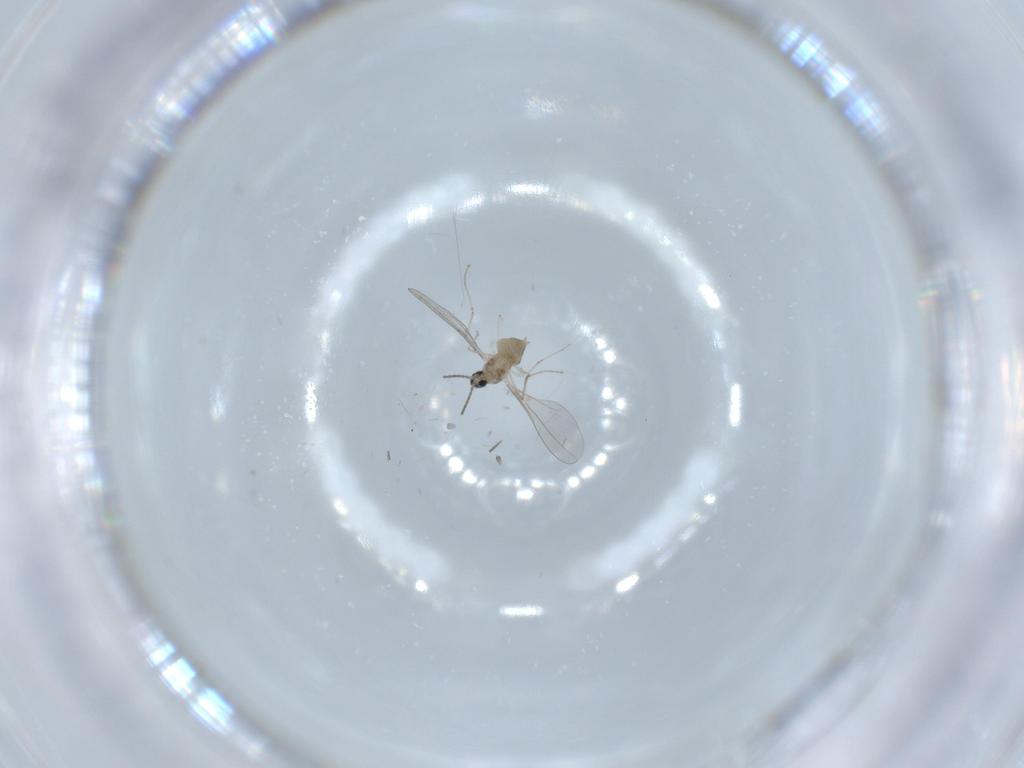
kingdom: Animalia
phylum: Arthropoda
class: Insecta
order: Diptera
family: Cecidomyiidae
